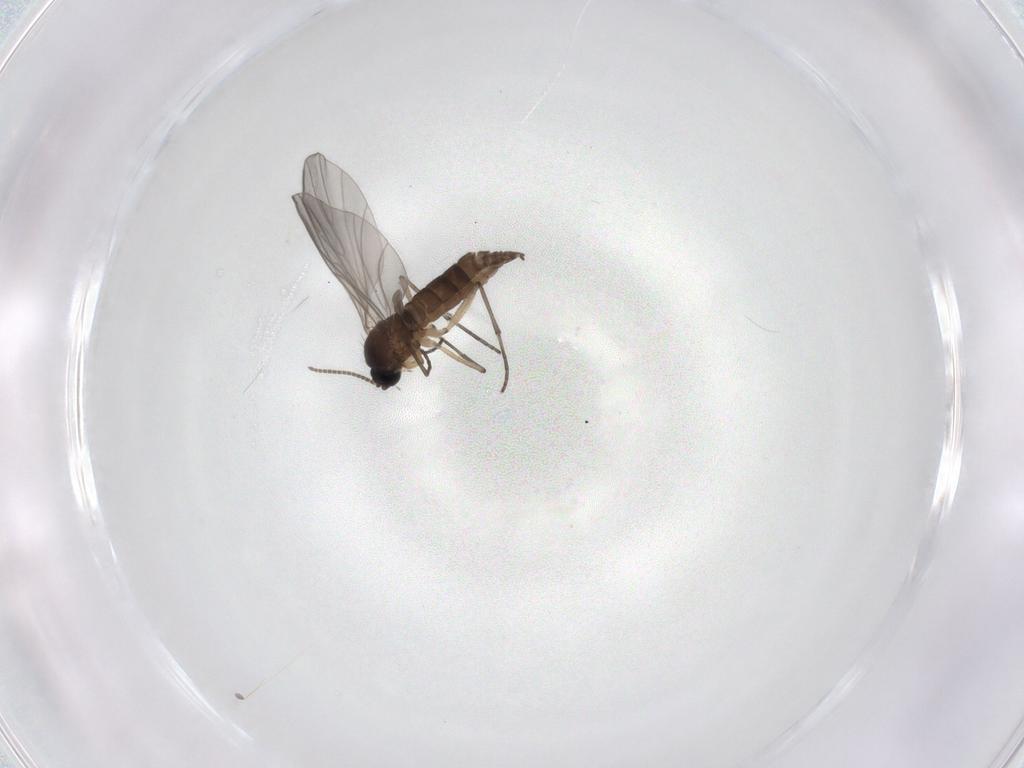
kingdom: Animalia
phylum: Arthropoda
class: Insecta
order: Diptera
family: Sciaridae
